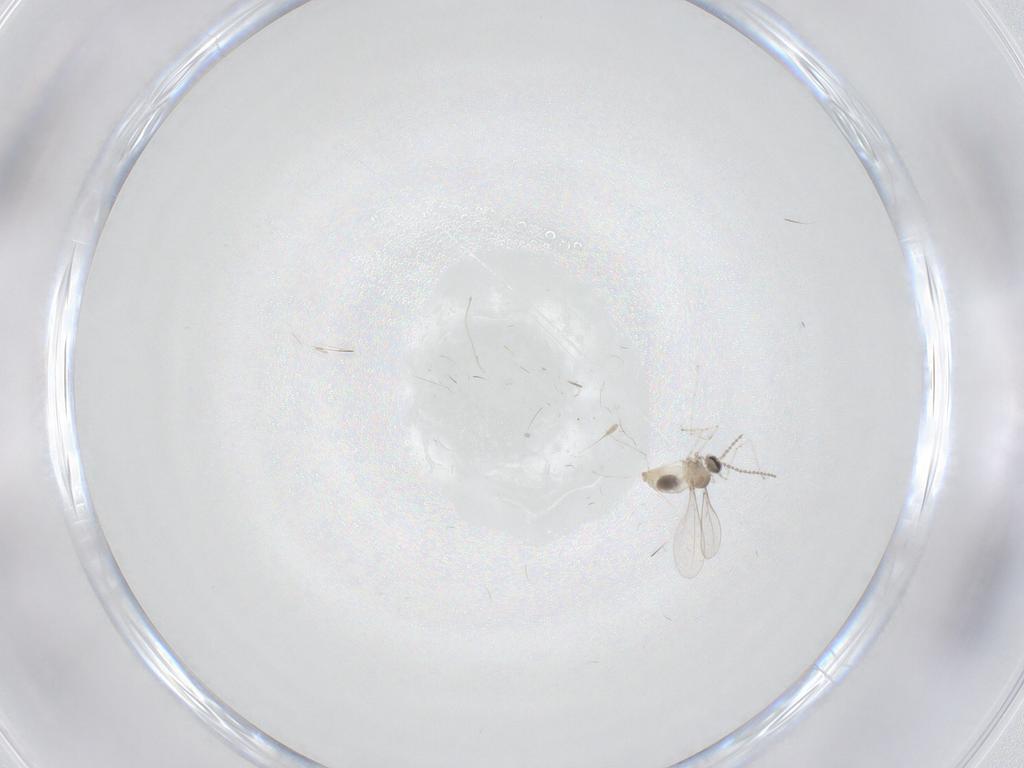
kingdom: Animalia
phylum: Arthropoda
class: Insecta
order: Diptera
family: Cecidomyiidae
